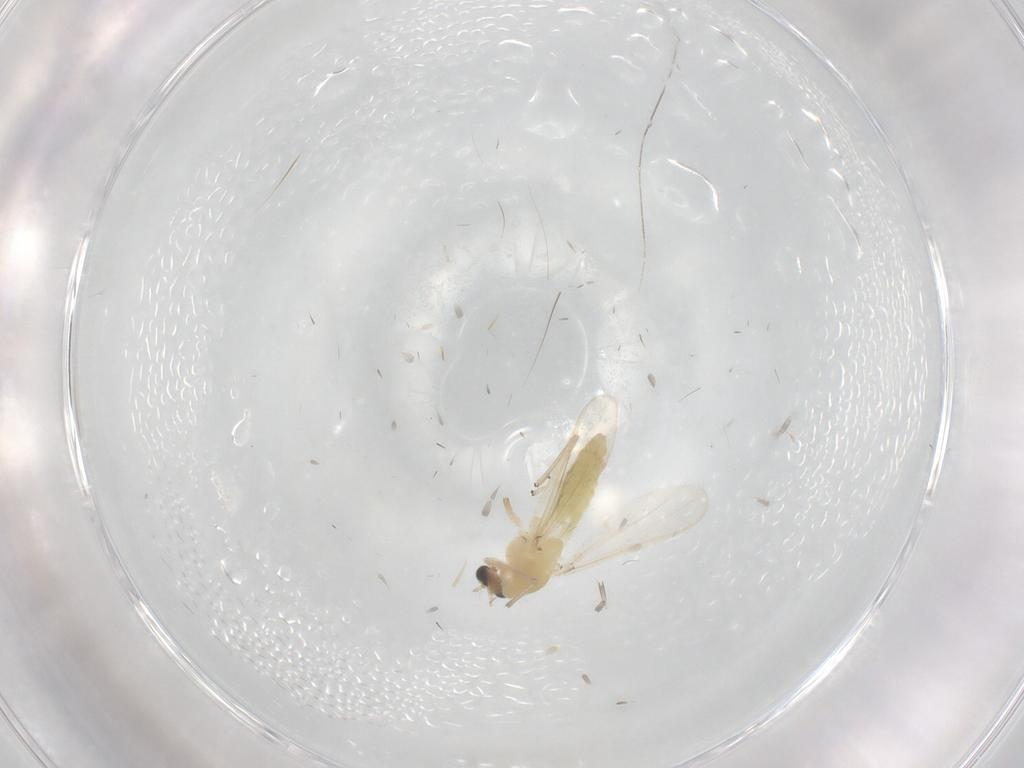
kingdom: Animalia
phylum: Arthropoda
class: Insecta
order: Diptera
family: Chironomidae
